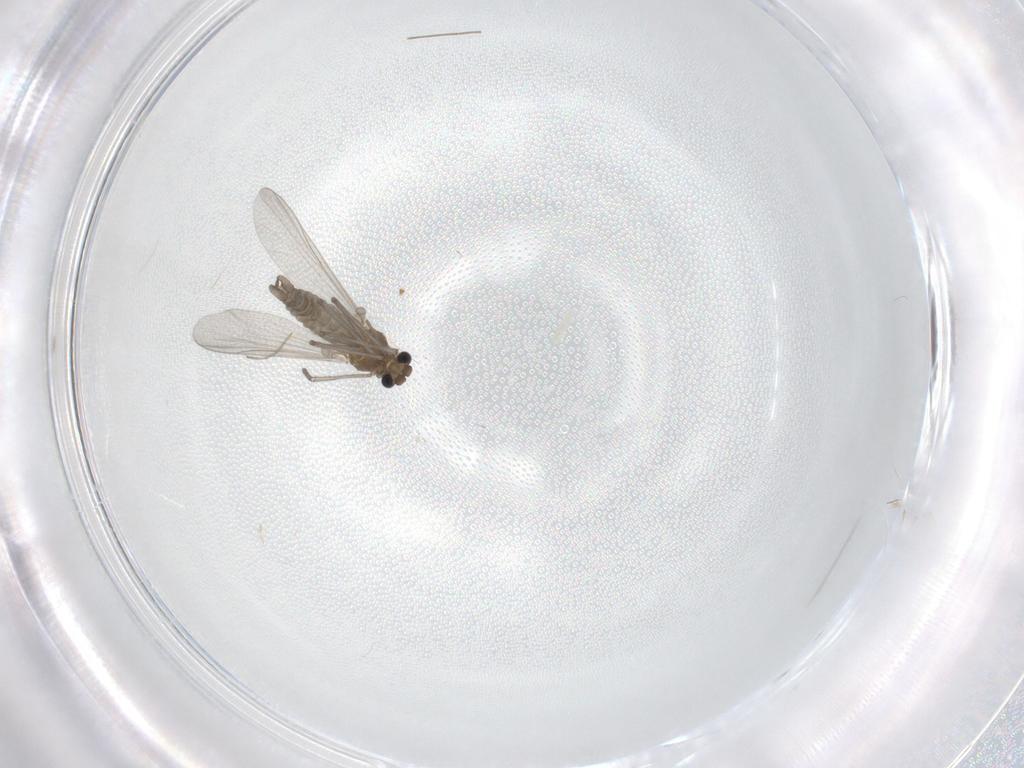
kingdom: Animalia
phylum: Arthropoda
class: Insecta
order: Diptera
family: Chironomidae
